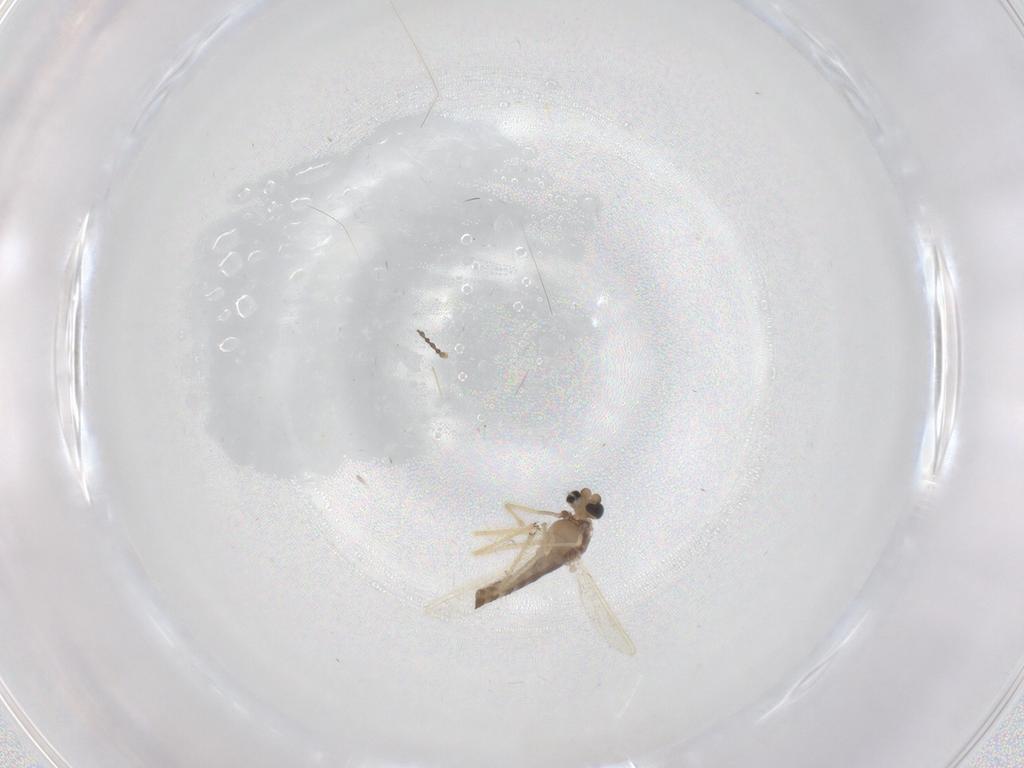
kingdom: Animalia
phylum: Arthropoda
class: Insecta
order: Diptera
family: Chironomidae
